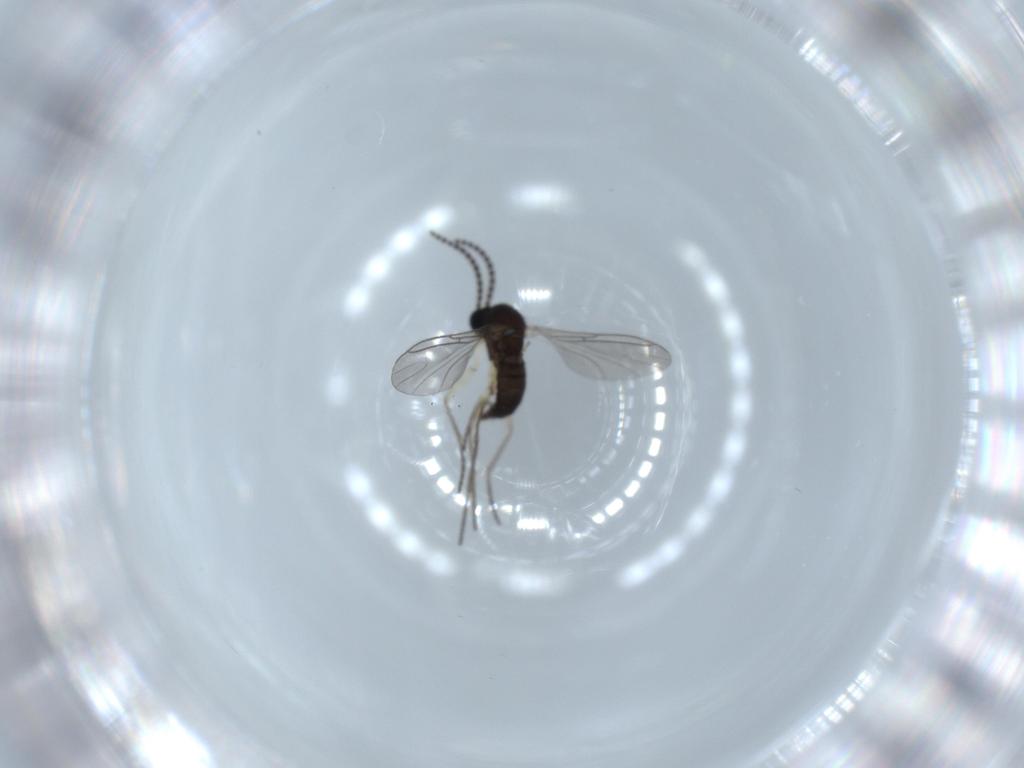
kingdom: Animalia
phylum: Arthropoda
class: Insecta
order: Diptera
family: Sciaridae
